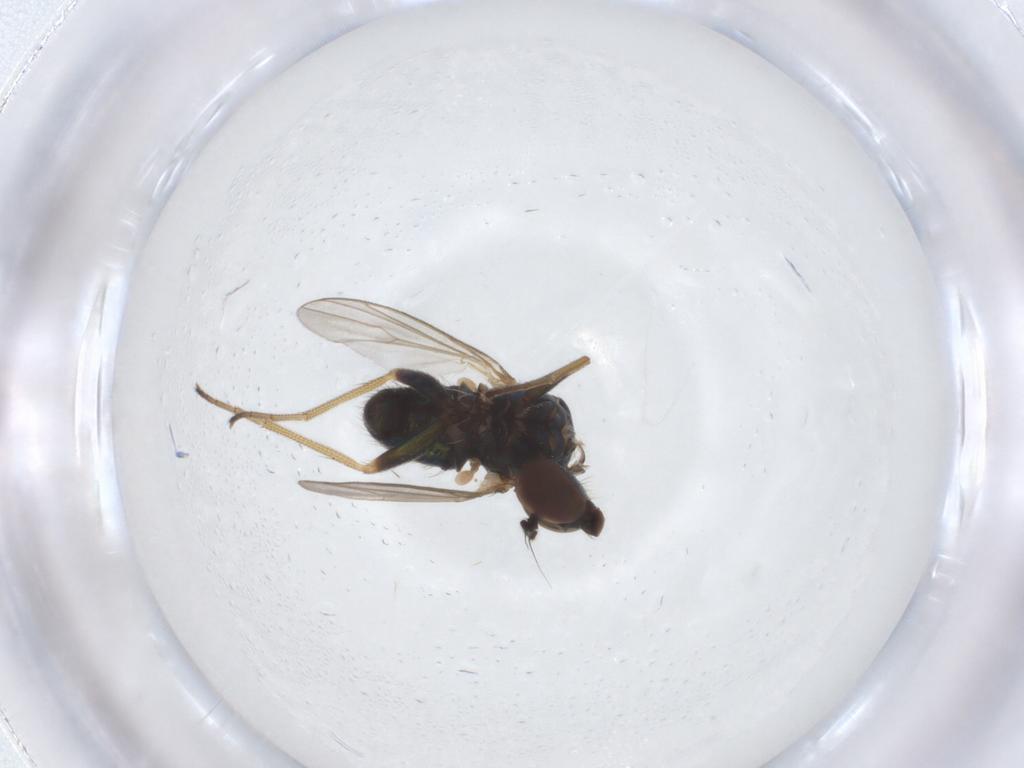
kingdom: Animalia
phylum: Arthropoda
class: Insecta
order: Diptera
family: Dolichopodidae
